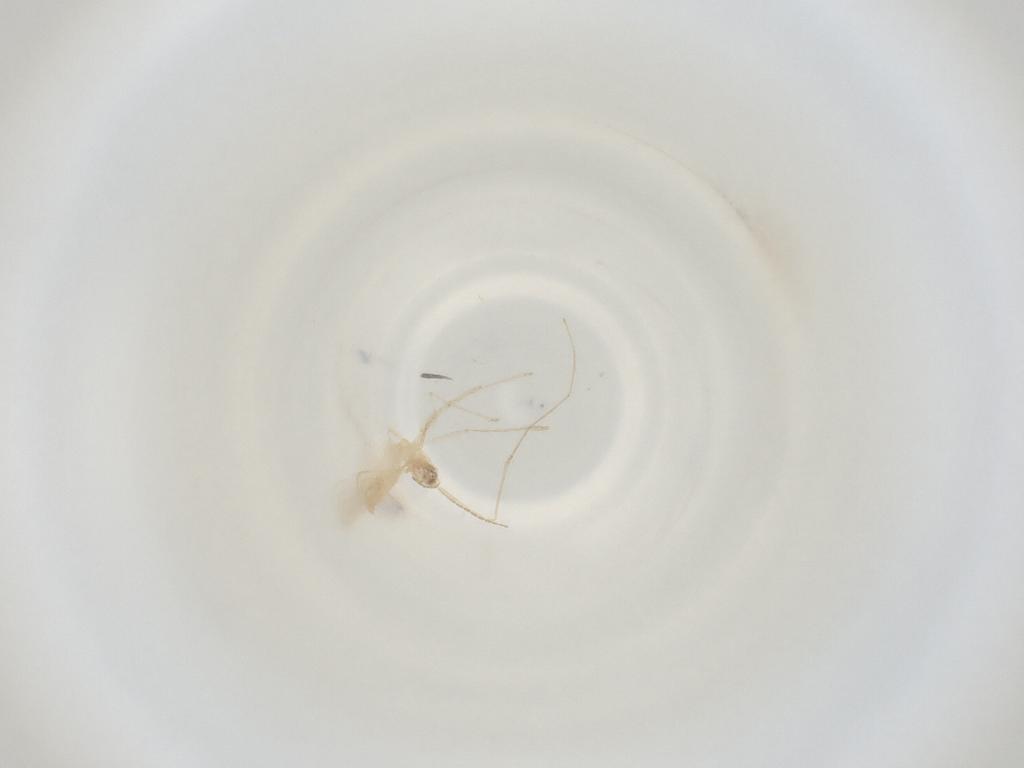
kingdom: Animalia
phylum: Arthropoda
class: Insecta
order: Diptera
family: Cecidomyiidae
